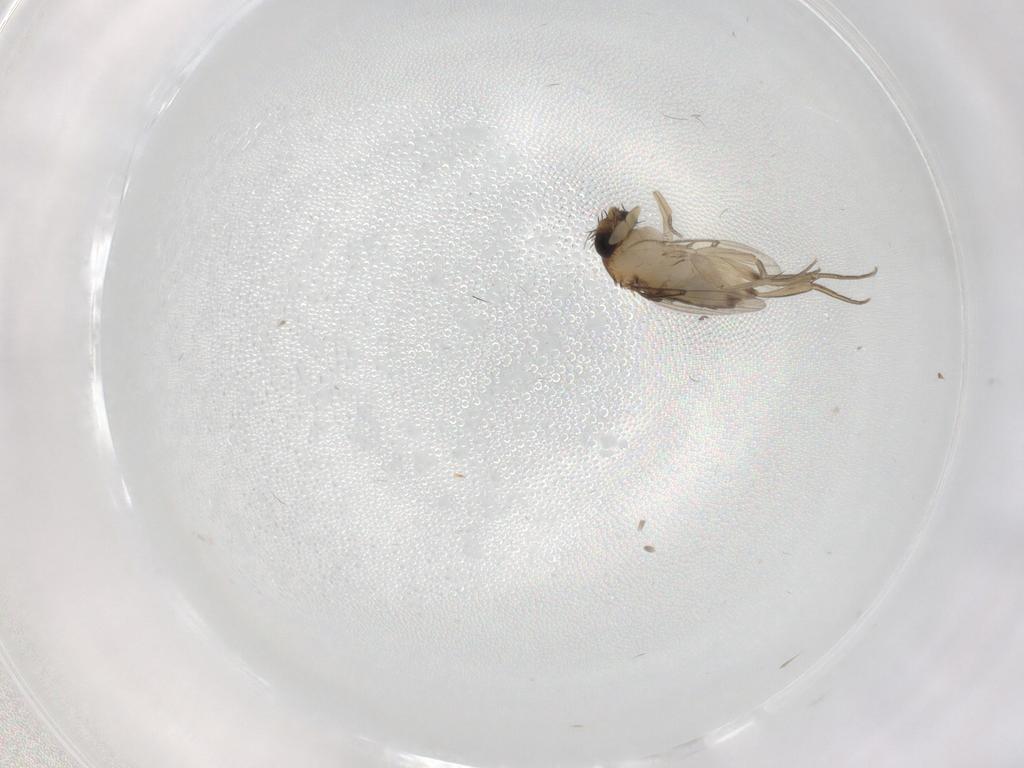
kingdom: Animalia
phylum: Arthropoda
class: Insecta
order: Diptera
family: Phoridae
